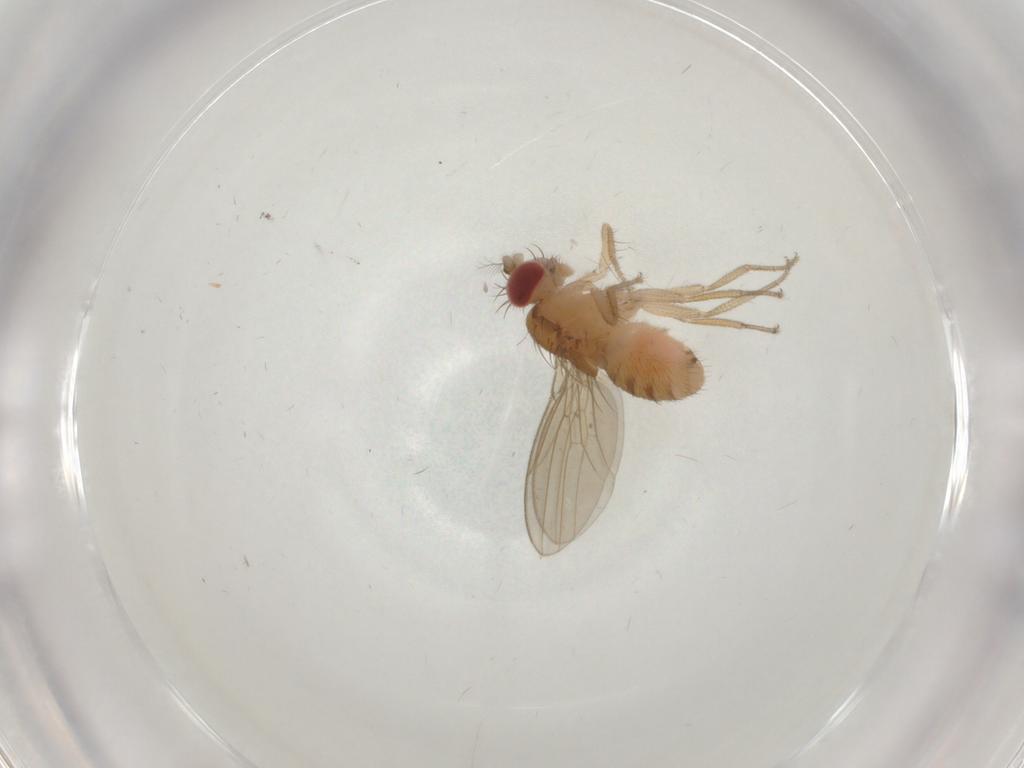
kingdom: Animalia
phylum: Arthropoda
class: Insecta
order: Diptera
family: Drosophilidae
